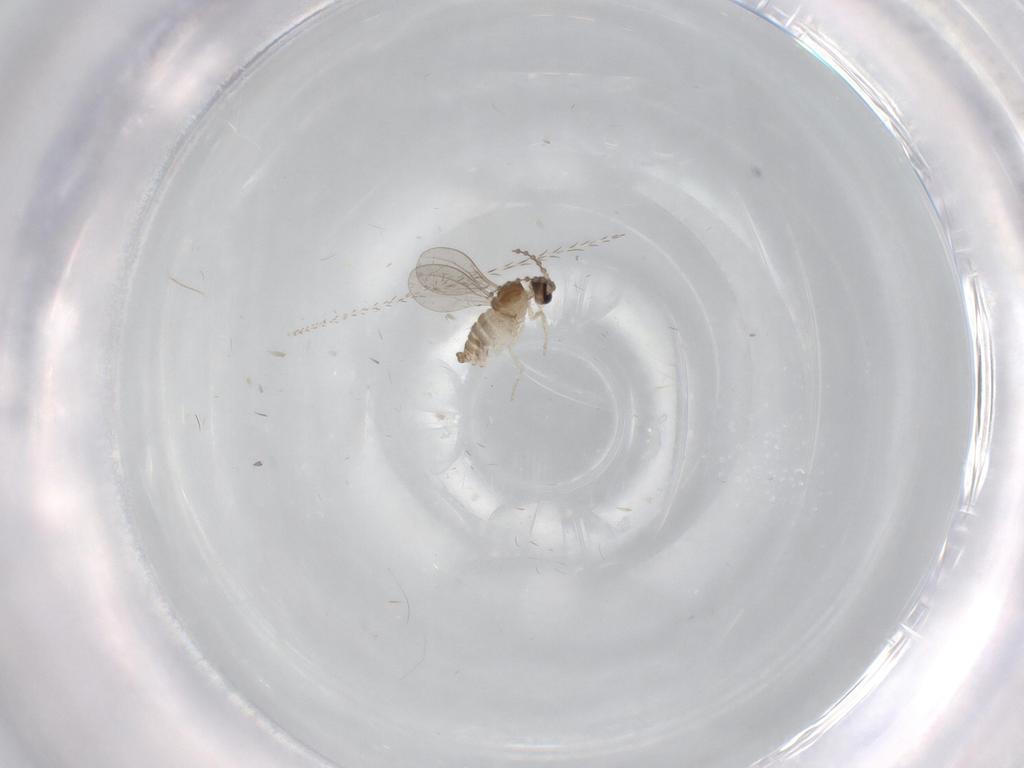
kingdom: Animalia
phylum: Arthropoda
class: Insecta
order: Diptera
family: Cecidomyiidae
